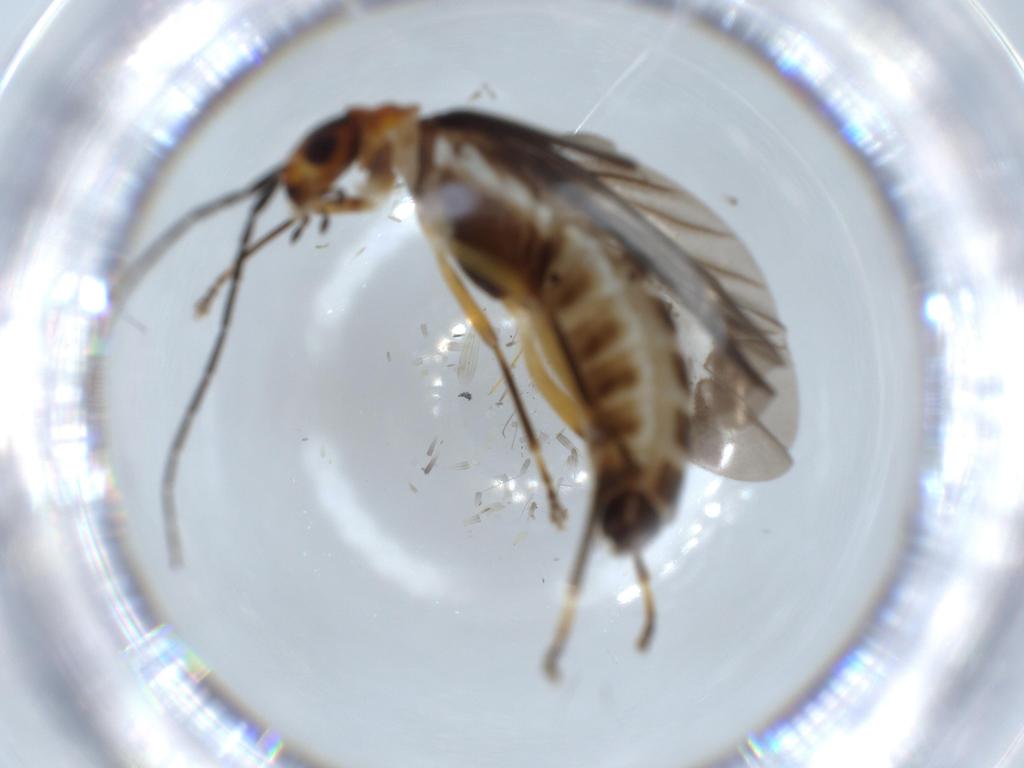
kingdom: Animalia
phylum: Arthropoda
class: Insecta
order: Coleoptera
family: Cantharidae
